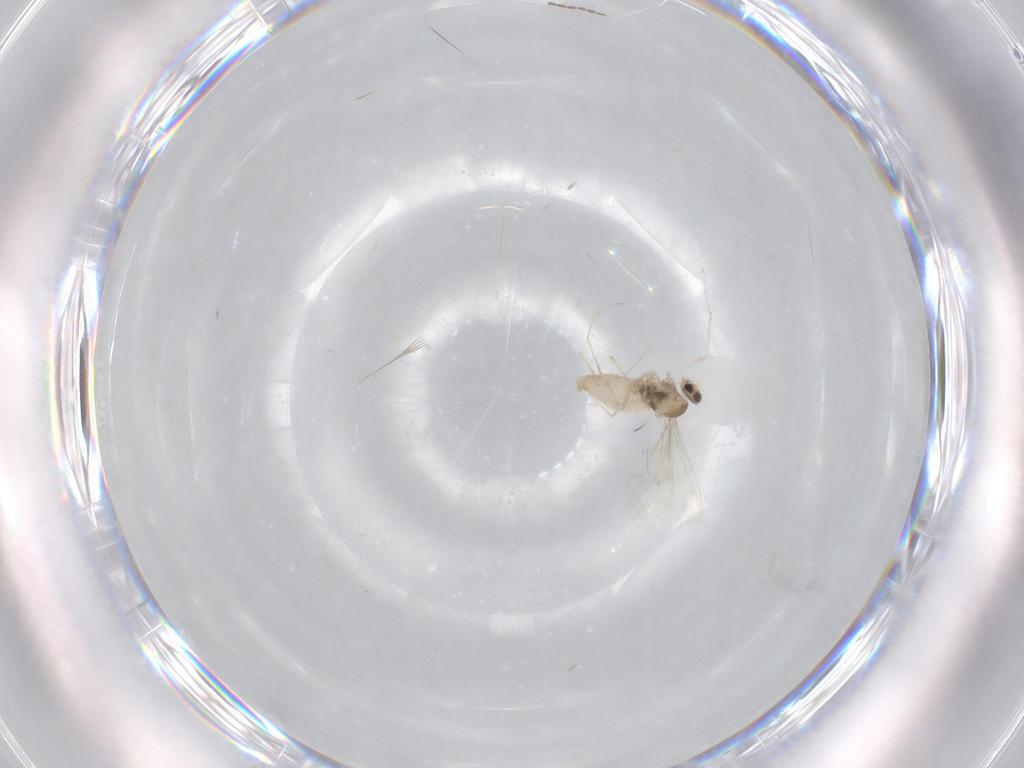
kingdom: Animalia
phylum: Arthropoda
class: Insecta
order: Diptera
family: Cecidomyiidae
